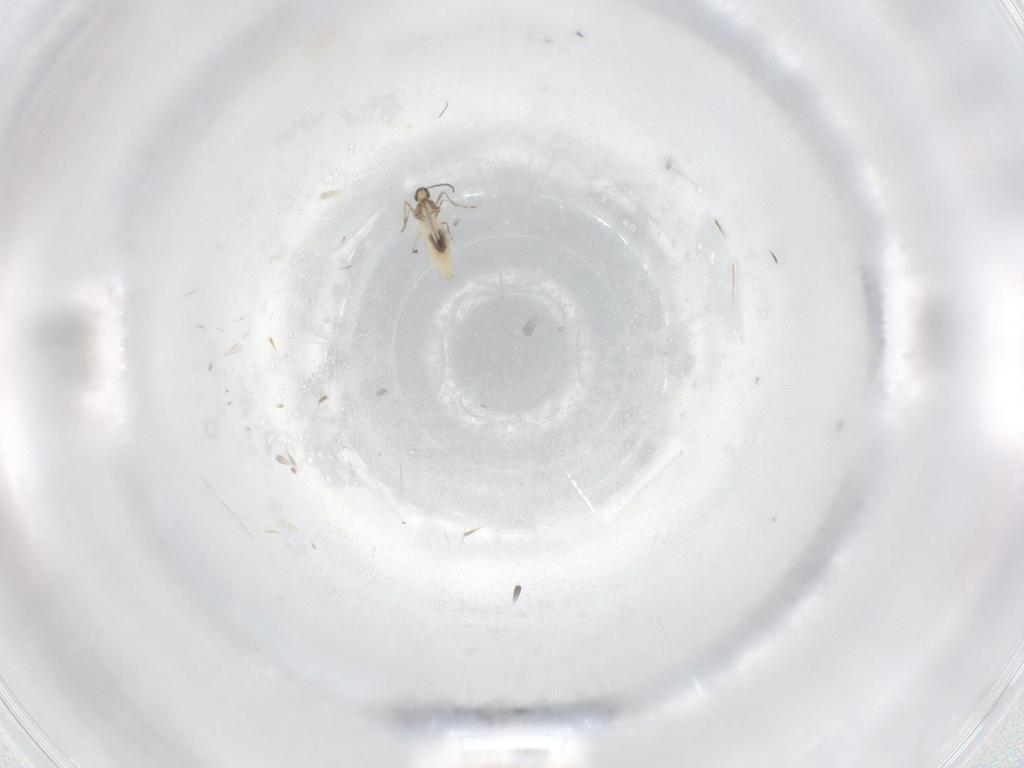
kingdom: Animalia
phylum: Arthropoda
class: Insecta
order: Diptera
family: Cecidomyiidae
